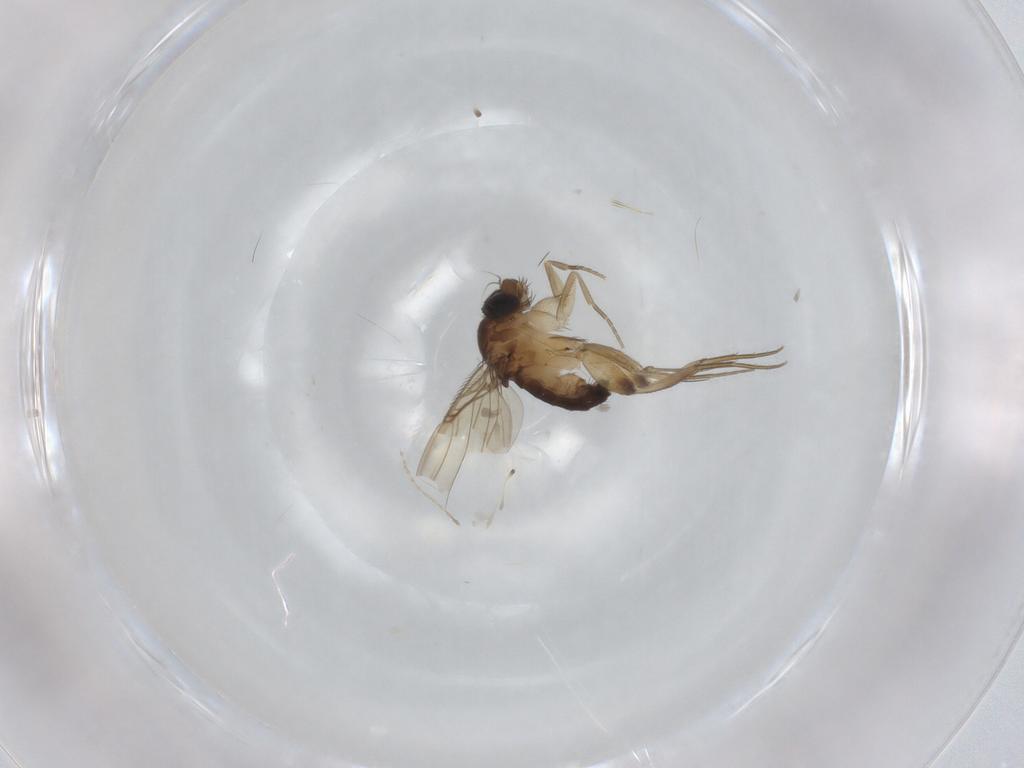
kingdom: Animalia
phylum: Arthropoda
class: Insecta
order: Diptera
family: Phoridae
